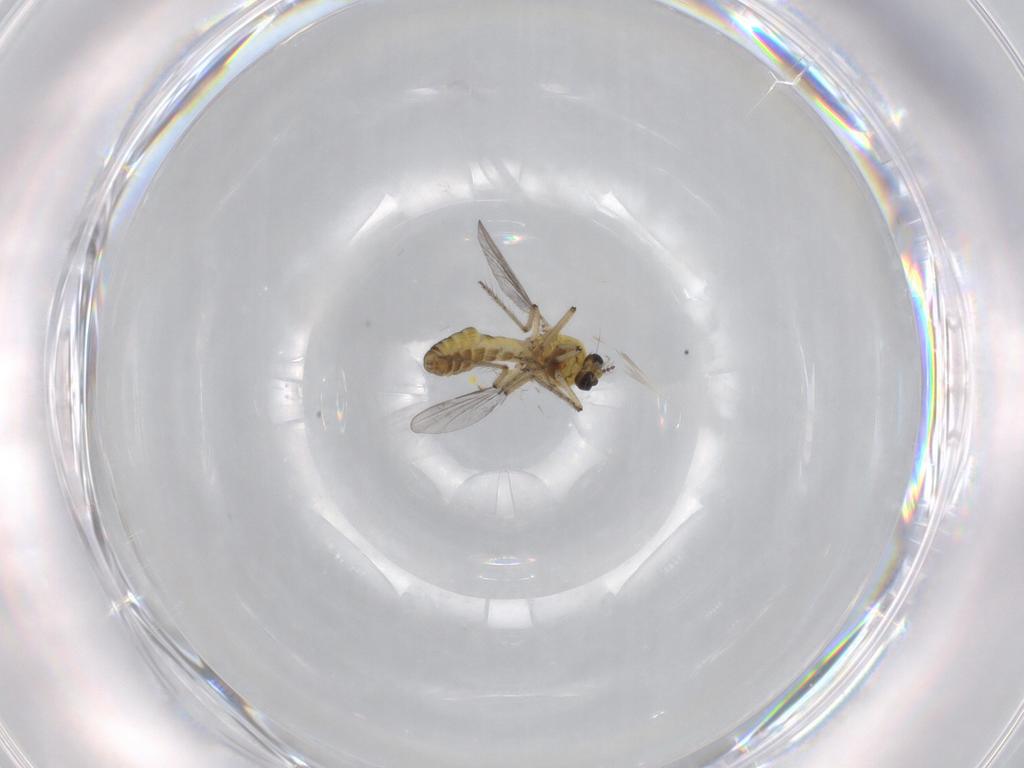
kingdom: Animalia
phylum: Arthropoda
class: Insecta
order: Diptera
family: Ceratopogonidae
